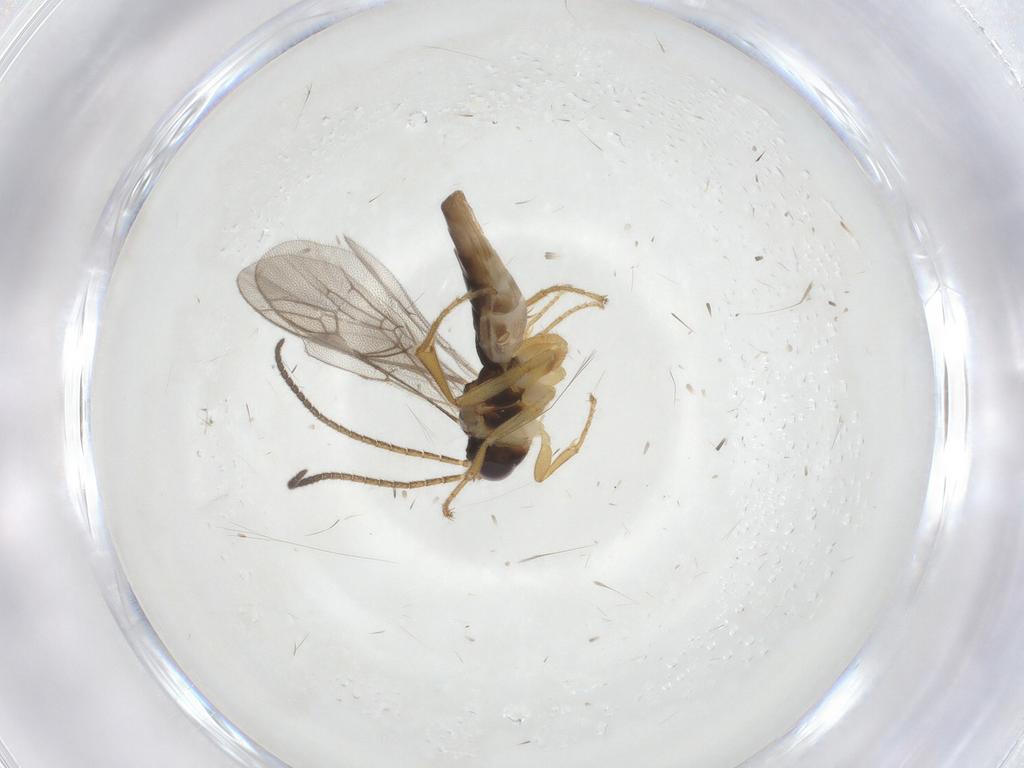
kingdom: Animalia
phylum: Arthropoda
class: Insecta
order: Hymenoptera
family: Ichneumonidae
